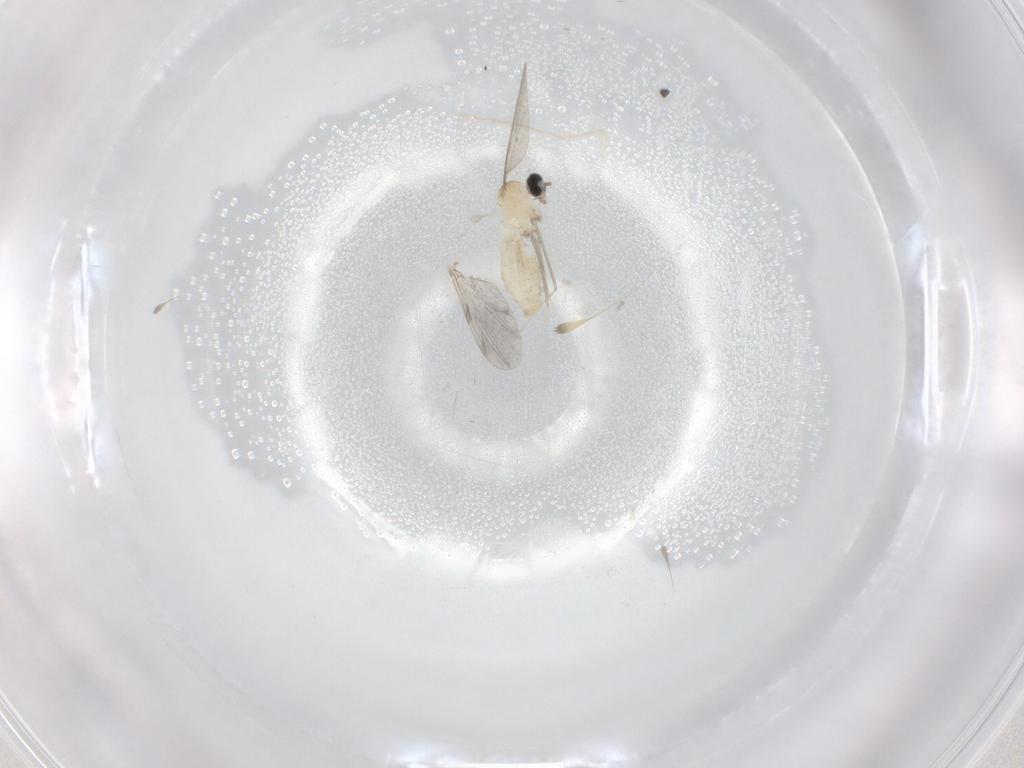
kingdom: Animalia
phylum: Arthropoda
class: Insecta
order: Diptera
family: Cecidomyiidae
